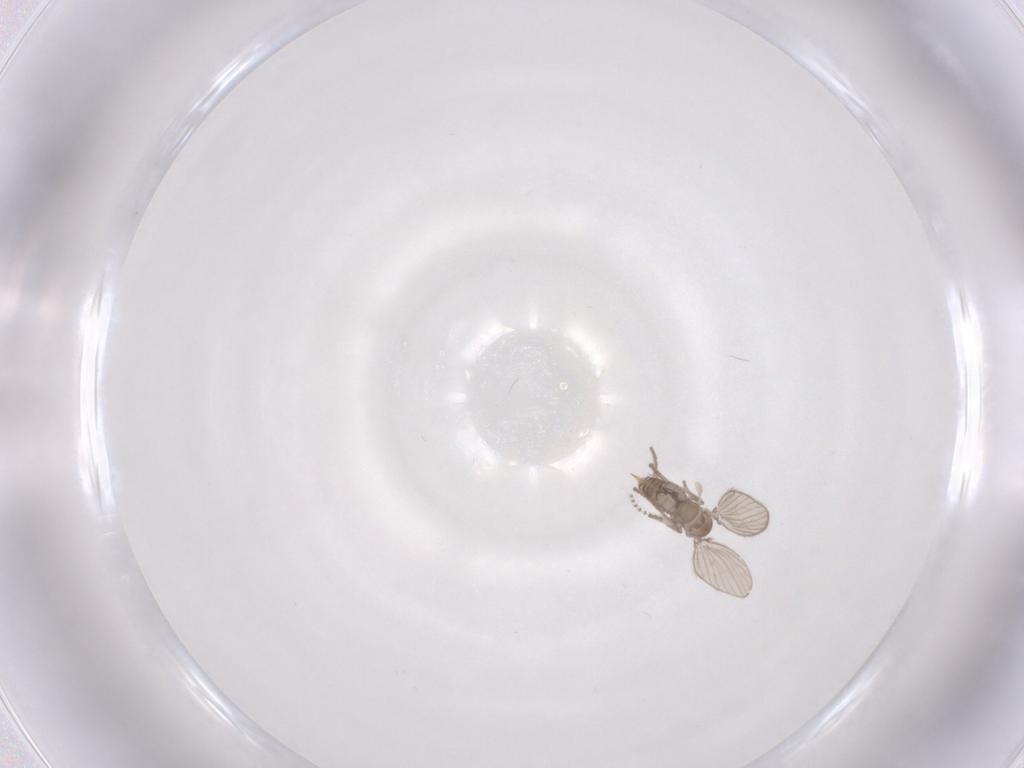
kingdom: Animalia
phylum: Arthropoda
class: Insecta
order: Diptera
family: Psychodidae
